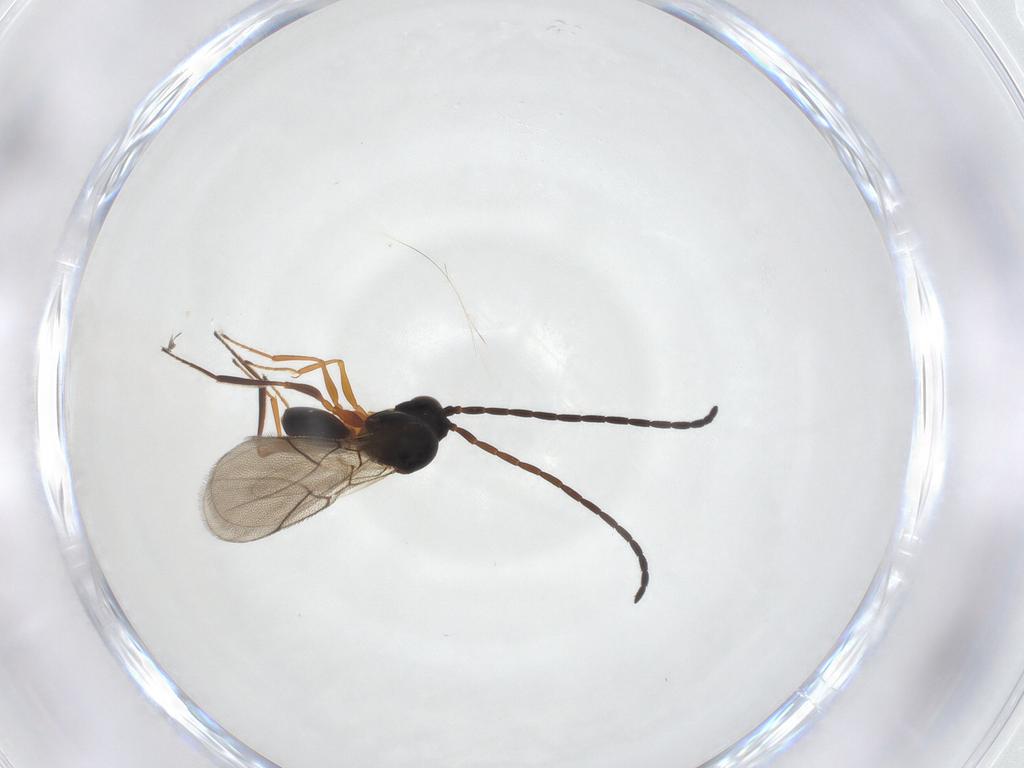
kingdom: Animalia
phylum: Arthropoda
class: Insecta
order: Hymenoptera
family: Figitidae
